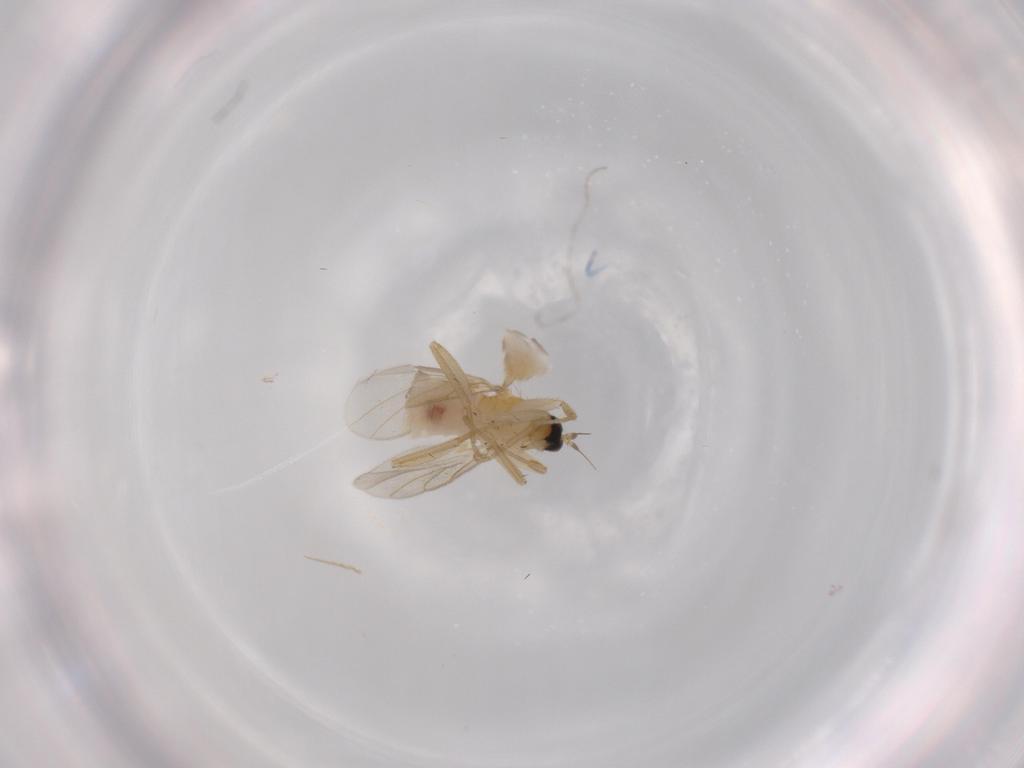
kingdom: Animalia
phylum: Arthropoda
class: Insecta
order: Diptera
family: Hybotidae
